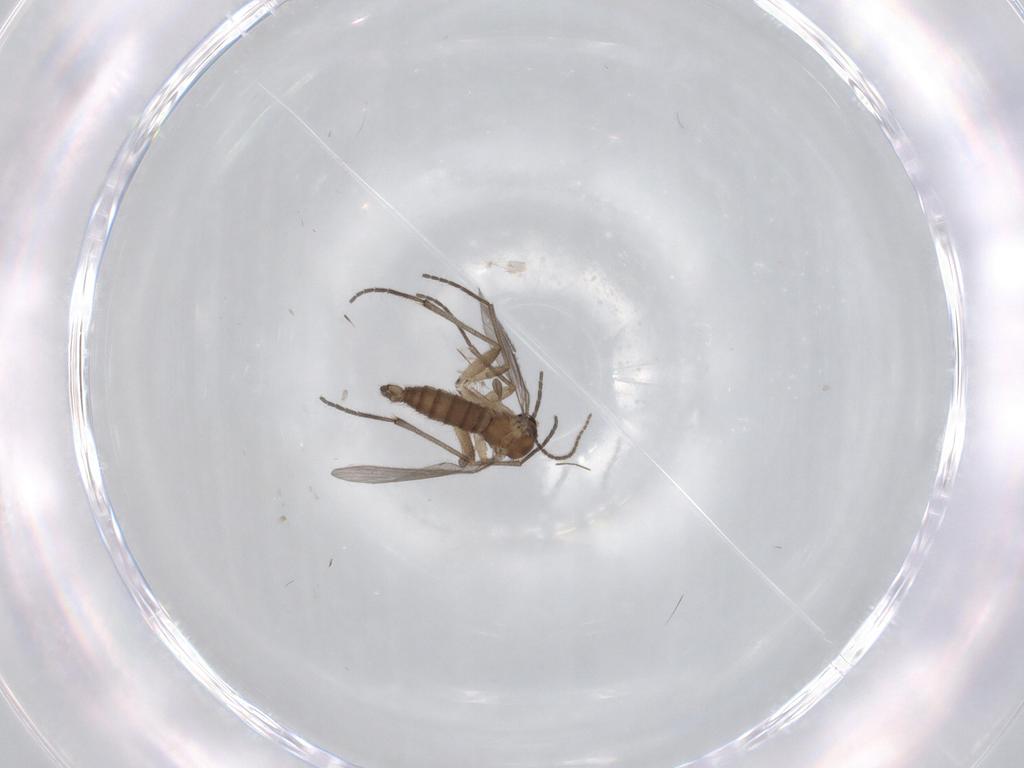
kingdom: Animalia
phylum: Arthropoda
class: Insecta
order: Diptera
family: Sciaridae
